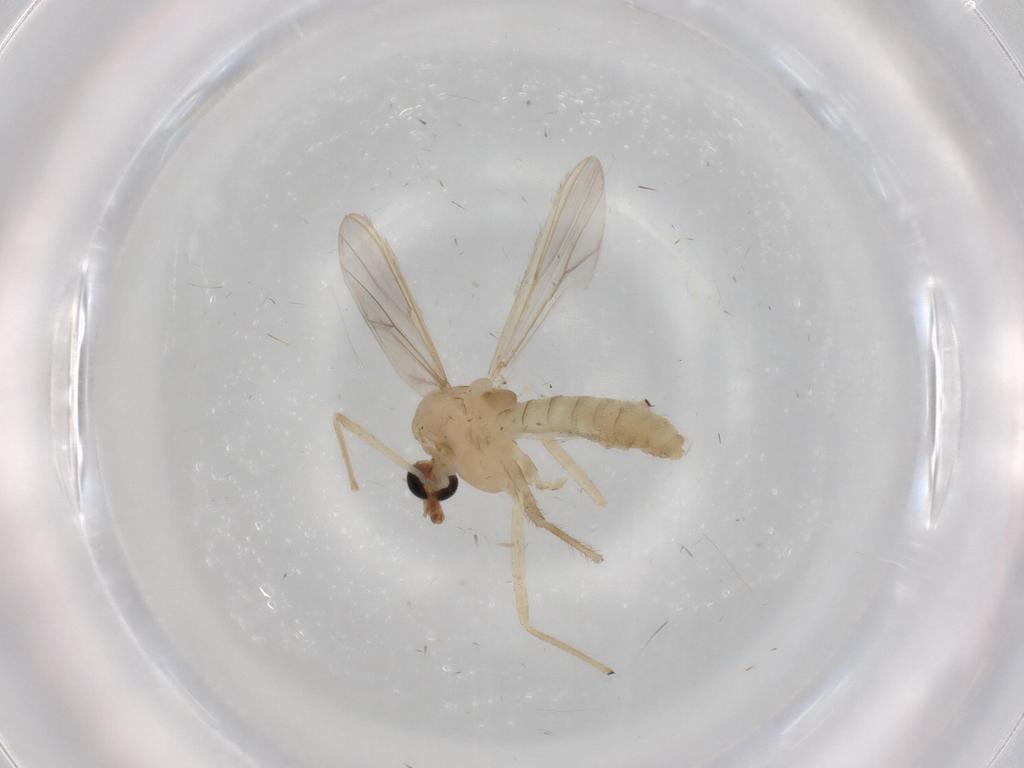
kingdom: Animalia
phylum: Arthropoda
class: Insecta
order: Diptera
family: Chironomidae
